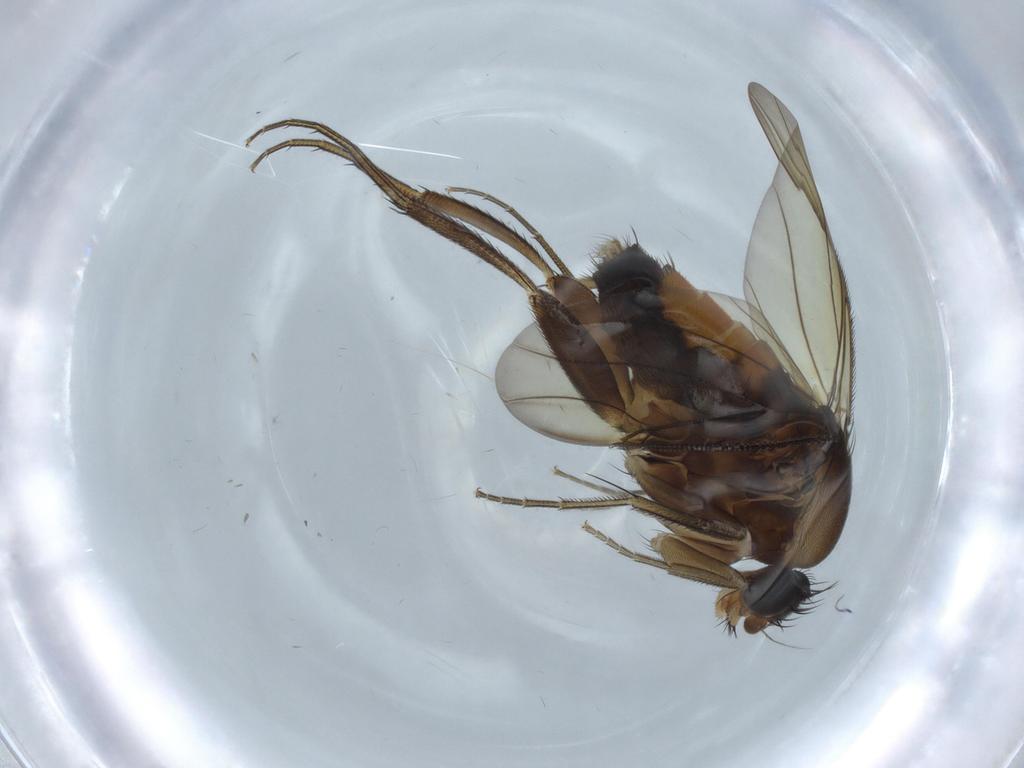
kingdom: Animalia
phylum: Arthropoda
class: Insecta
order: Diptera
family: Phoridae
